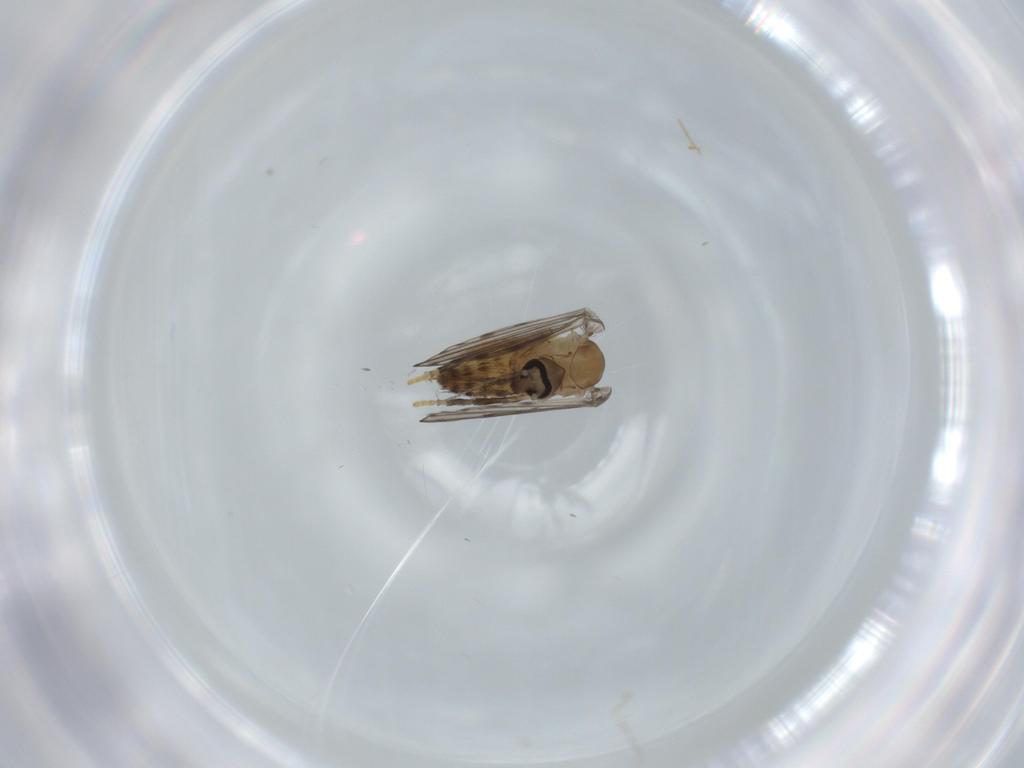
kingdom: Animalia
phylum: Arthropoda
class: Insecta
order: Diptera
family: Psychodidae
